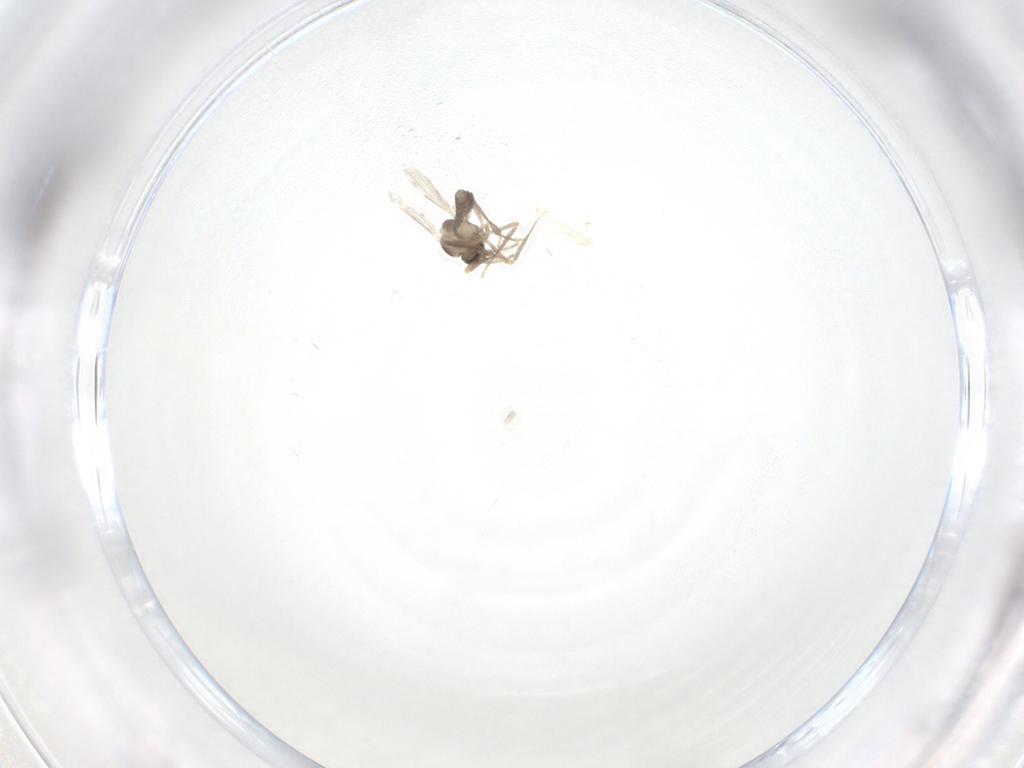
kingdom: Animalia
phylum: Arthropoda
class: Insecta
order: Diptera
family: Ceratopogonidae
